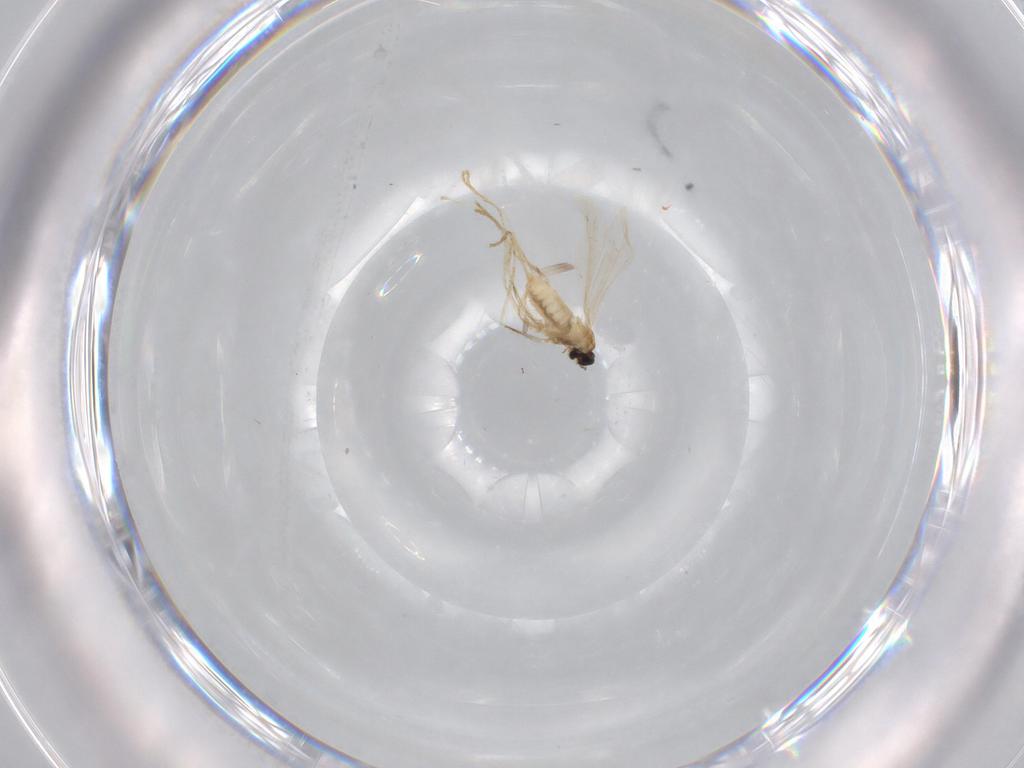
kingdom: Animalia
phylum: Arthropoda
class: Insecta
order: Diptera
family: Cecidomyiidae
